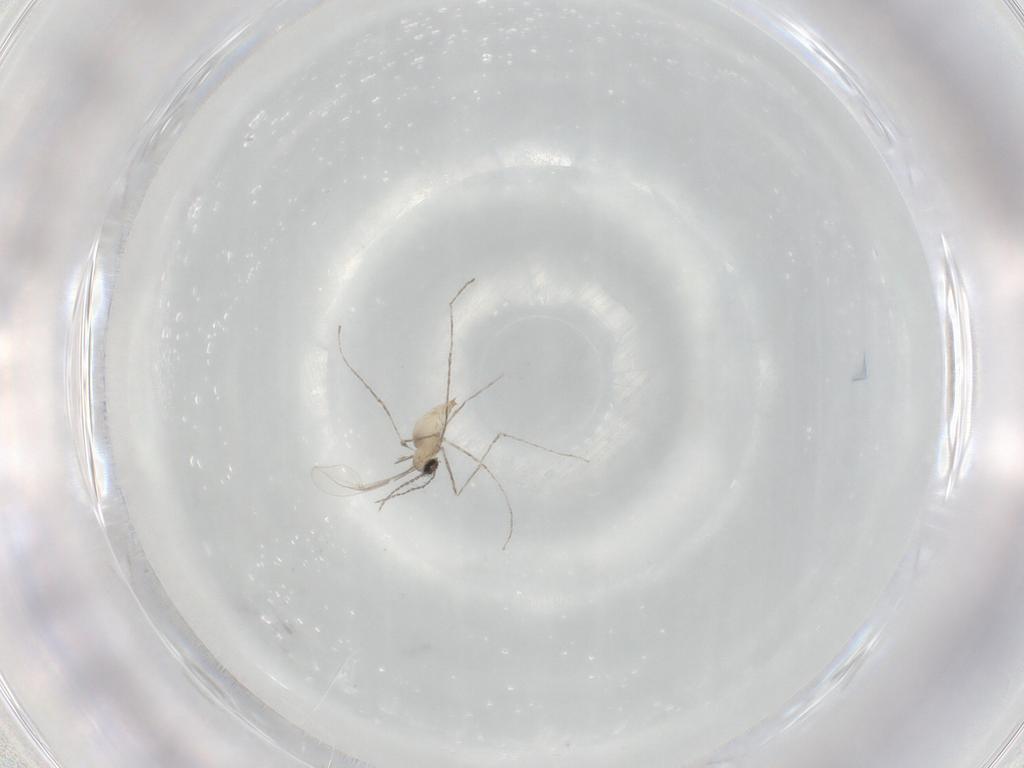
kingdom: Animalia
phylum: Arthropoda
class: Insecta
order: Diptera
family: Cecidomyiidae
